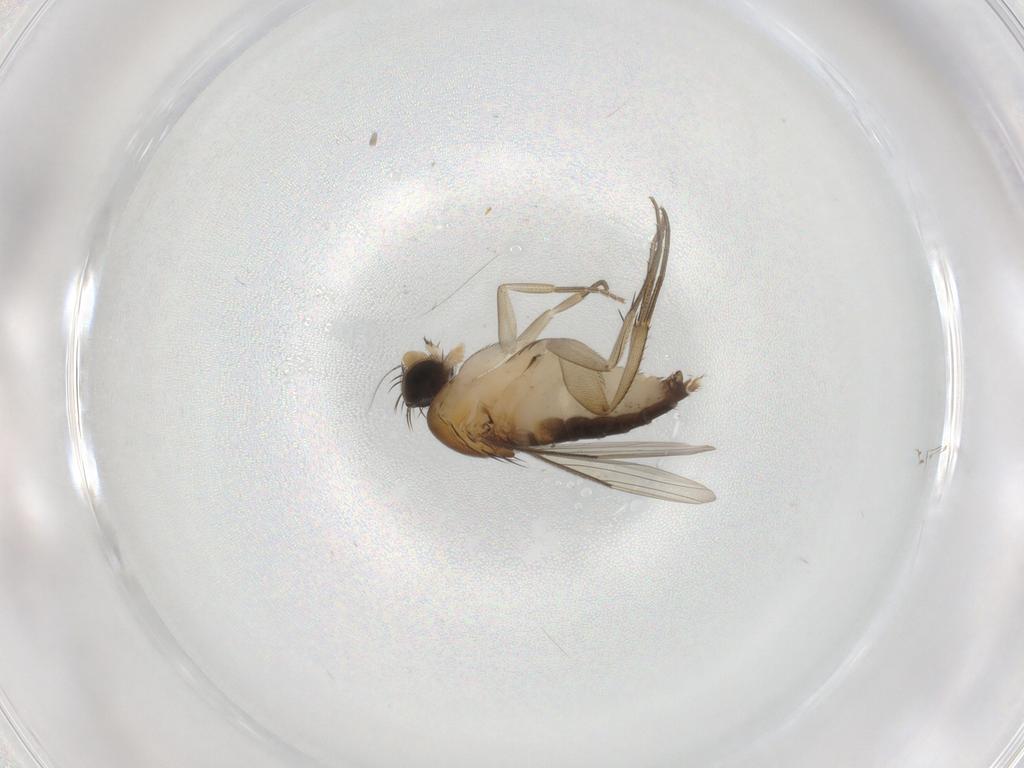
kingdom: Animalia
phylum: Arthropoda
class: Insecta
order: Diptera
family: Phoridae
